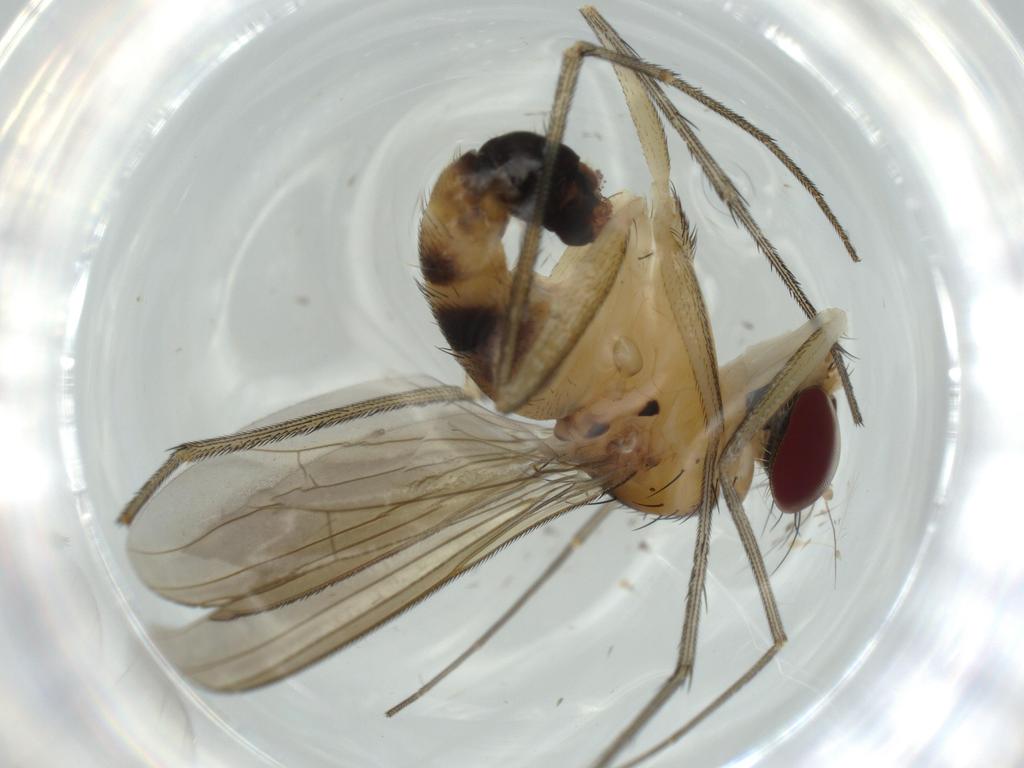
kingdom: Animalia
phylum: Arthropoda
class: Insecta
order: Diptera
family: Dolichopodidae
